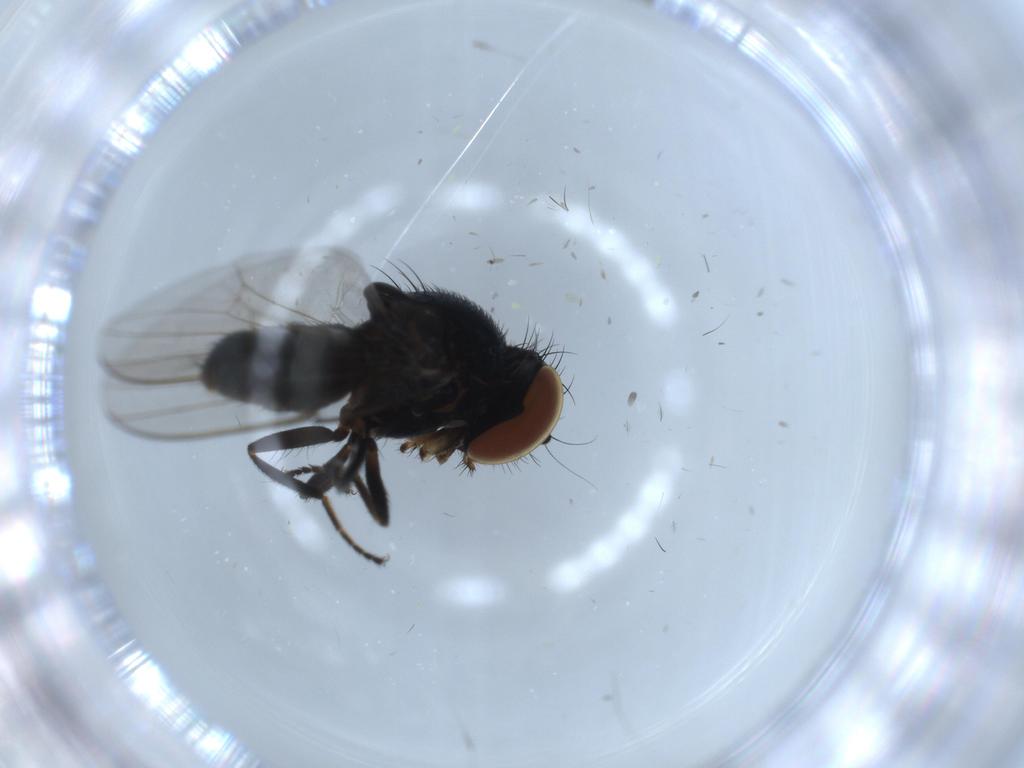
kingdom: Animalia
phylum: Arthropoda
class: Insecta
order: Diptera
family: Milichiidae
